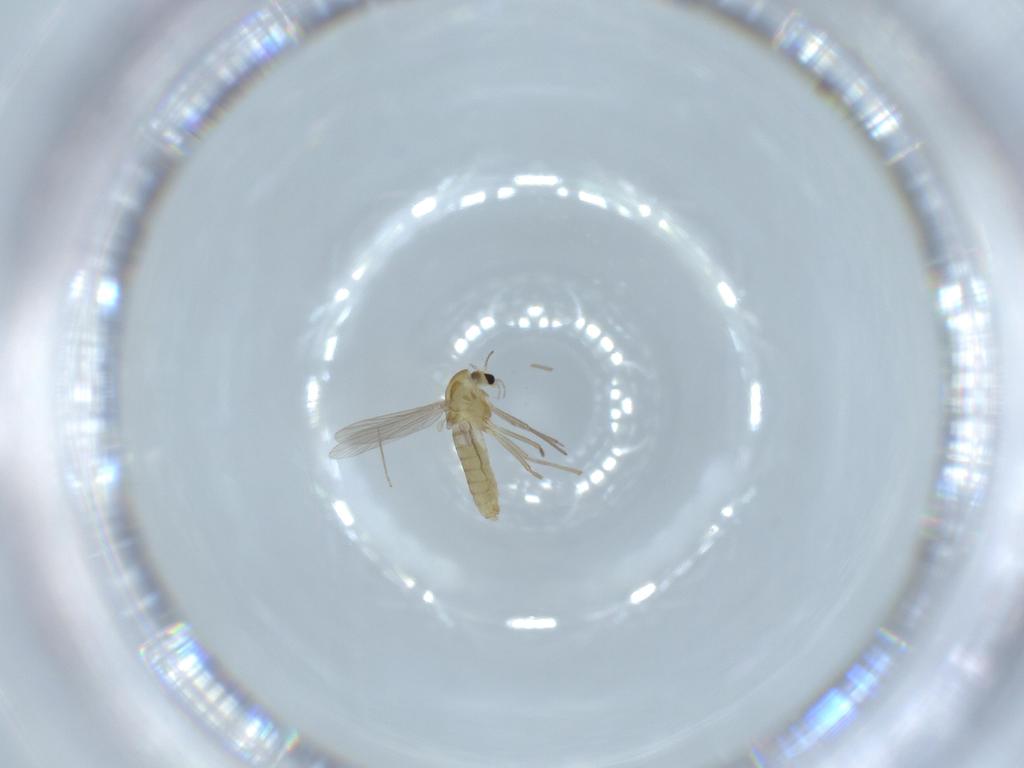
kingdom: Animalia
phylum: Arthropoda
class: Insecta
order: Diptera
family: Chironomidae
